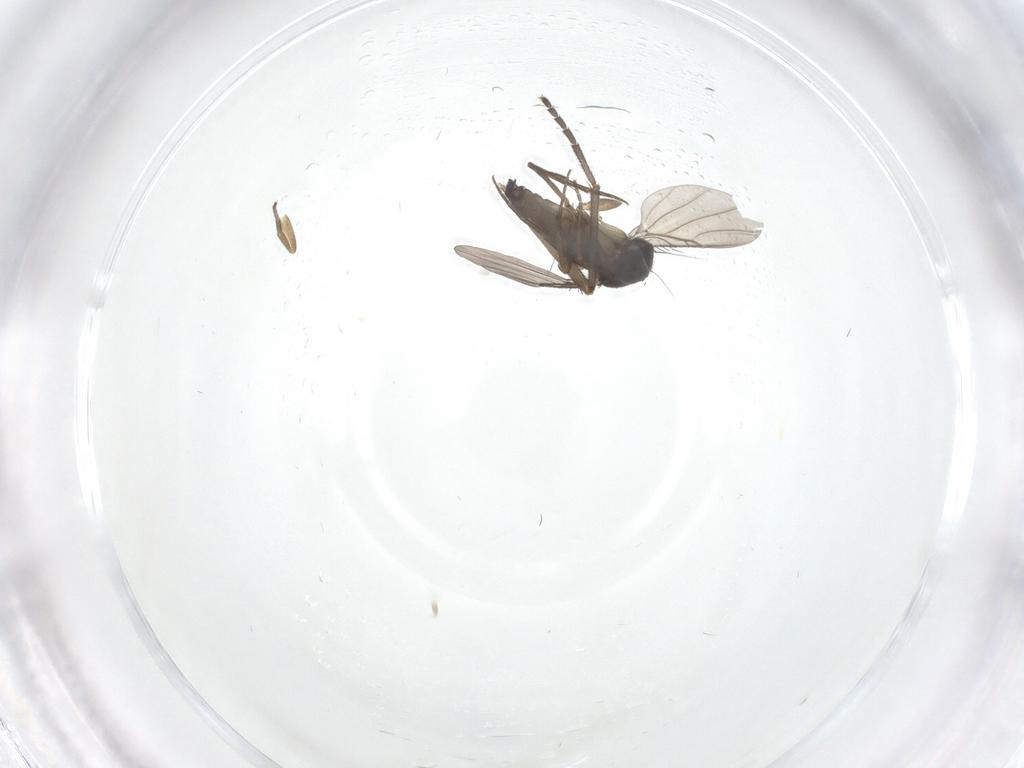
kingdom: Animalia
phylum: Arthropoda
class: Insecta
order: Diptera
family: Phoridae
